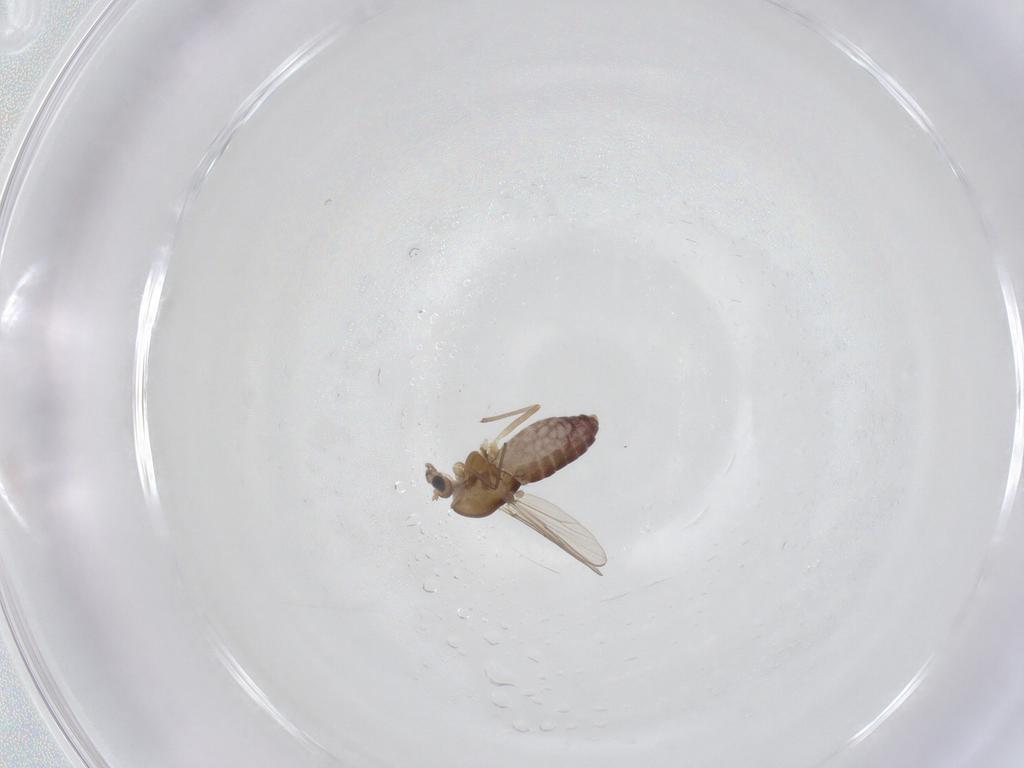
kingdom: Animalia
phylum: Arthropoda
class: Insecta
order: Diptera
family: Chironomidae
